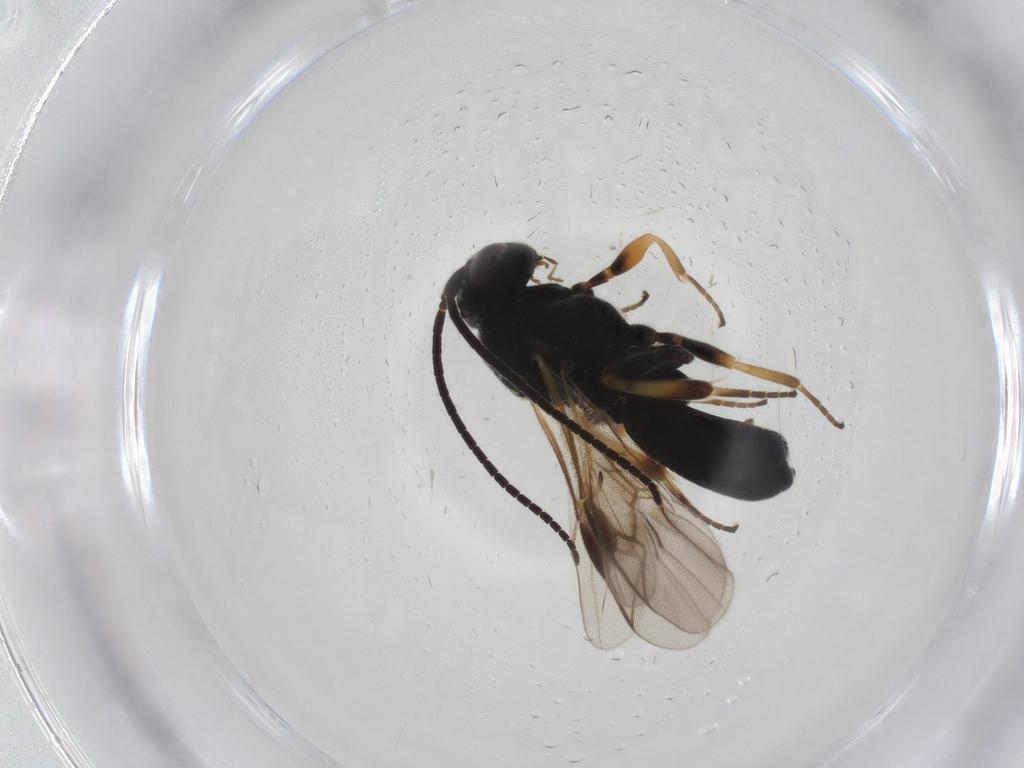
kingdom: Animalia
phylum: Arthropoda
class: Insecta
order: Hymenoptera
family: Braconidae
